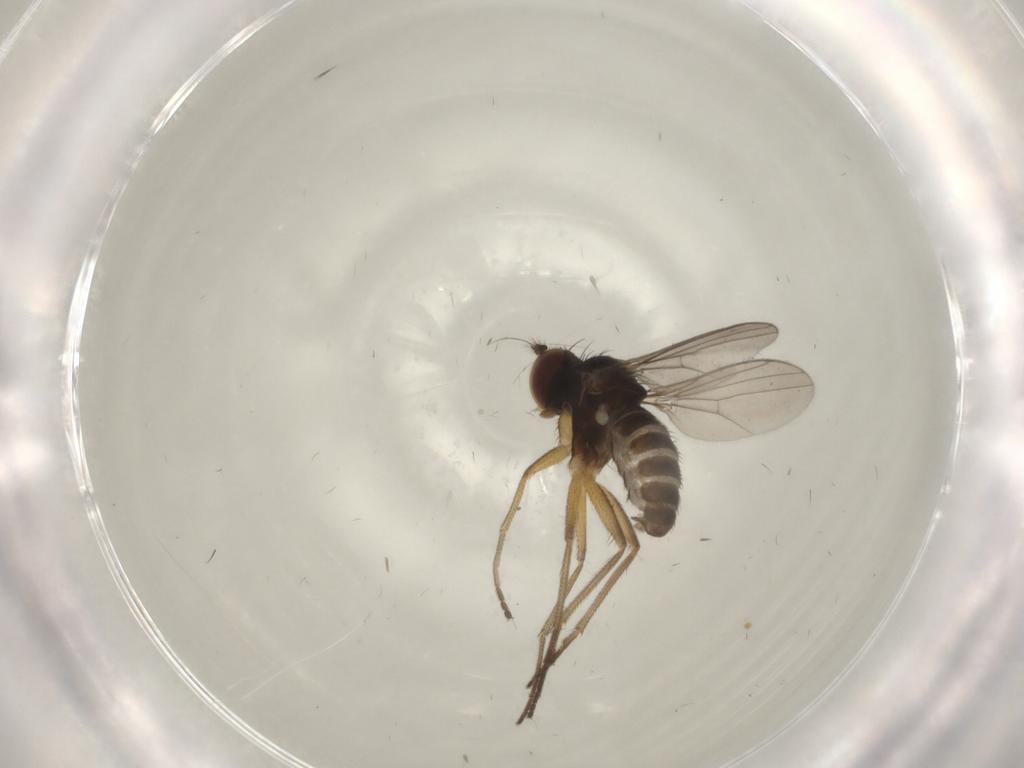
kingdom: Animalia
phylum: Arthropoda
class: Insecta
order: Diptera
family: Dolichopodidae
